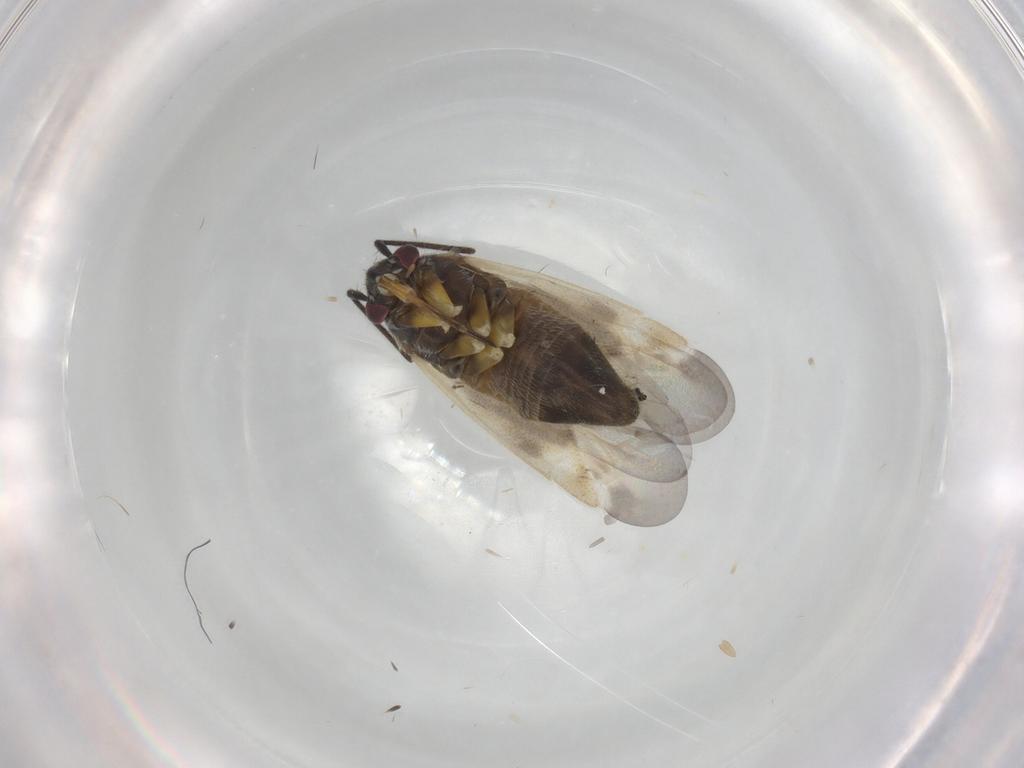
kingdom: Animalia
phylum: Arthropoda
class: Insecta
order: Hemiptera
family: Miridae
